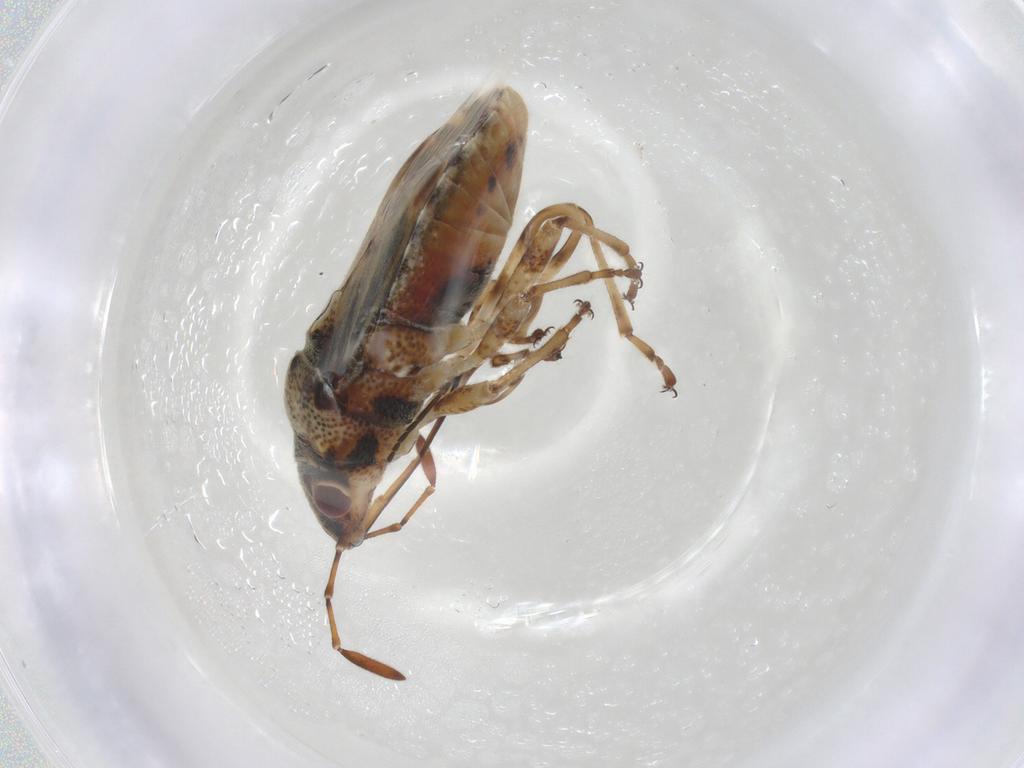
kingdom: Animalia
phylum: Arthropoda
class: Insecta
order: Hemiptera
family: Lygaeidae
